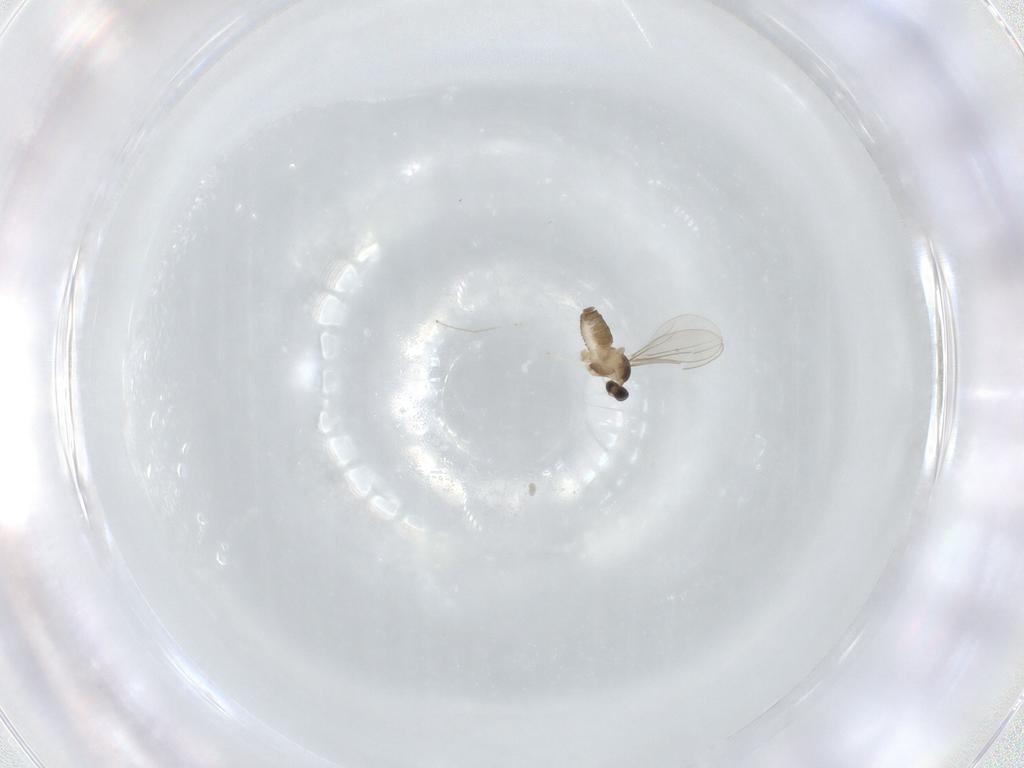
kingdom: Animalia
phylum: Arthropoda
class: Insecta
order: Diptera
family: Cecidomyiidae
